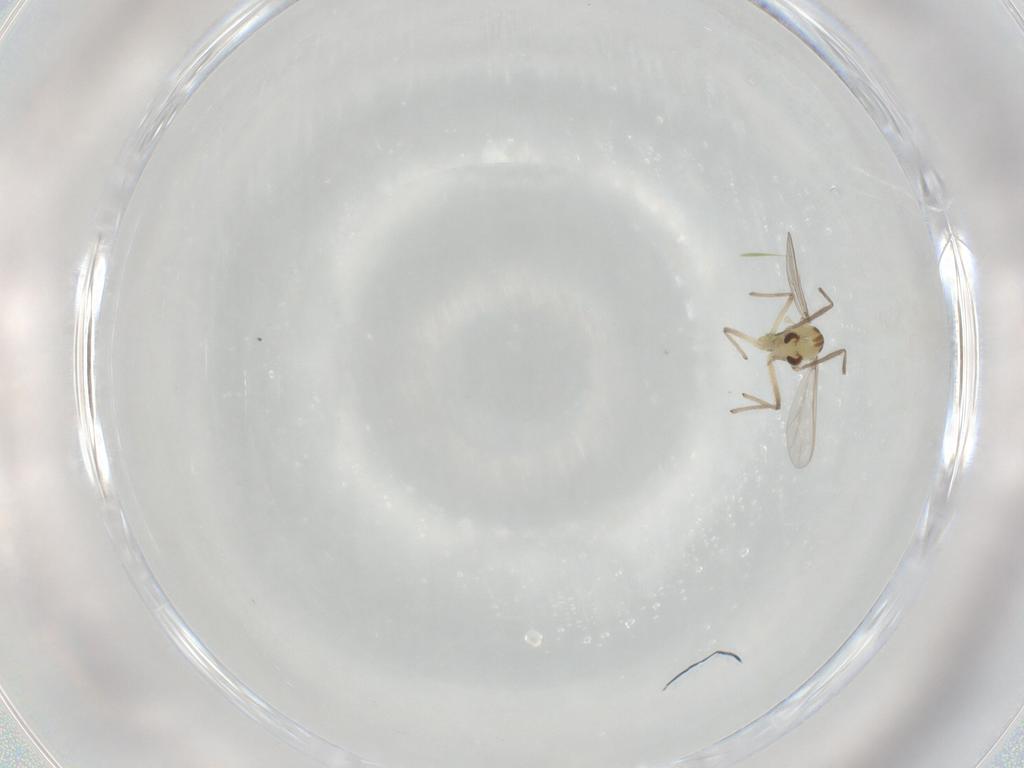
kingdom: Animalia
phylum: Arthropoda
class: Insecta
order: Diptera
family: Chironomidae
